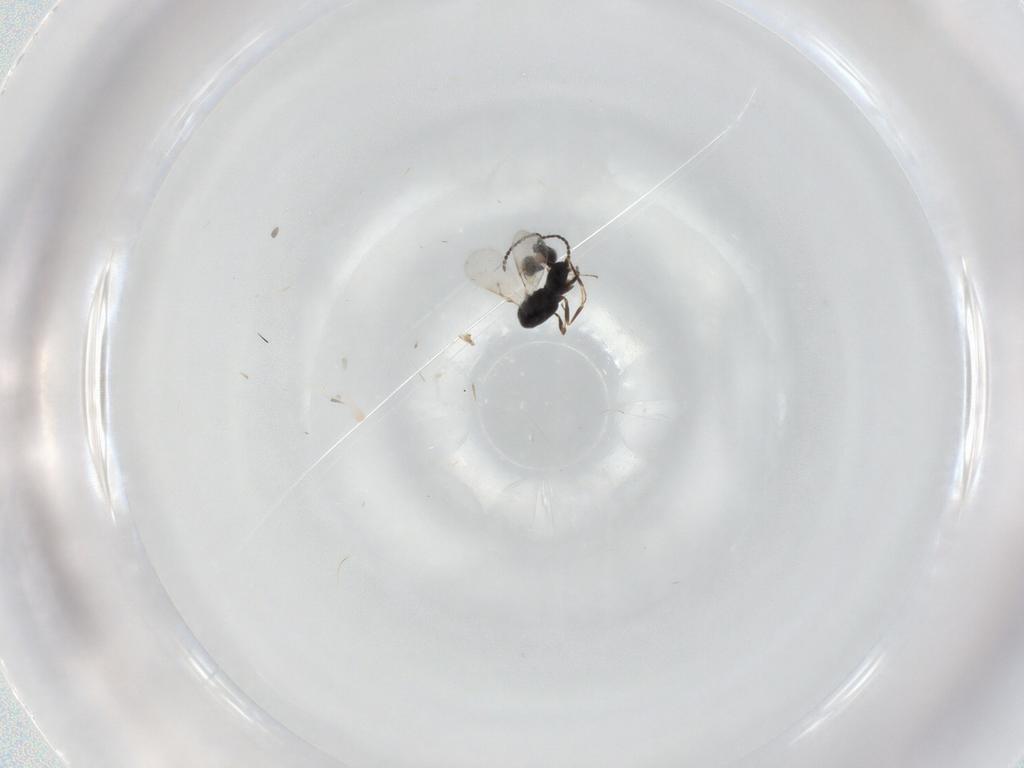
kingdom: Animalia
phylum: Arthropoda
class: Insecta
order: Hymenoptera
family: Scelionidae
